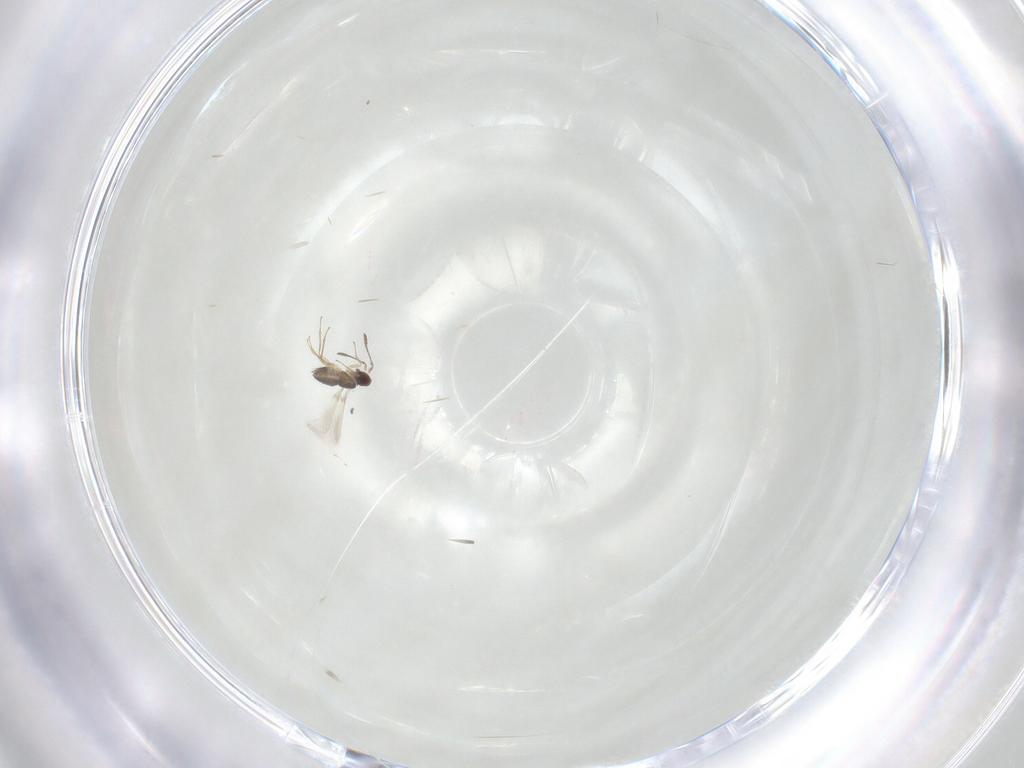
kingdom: Animalia
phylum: Arthropoda
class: Insecta
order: Hymenoptera
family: Mymaridae
